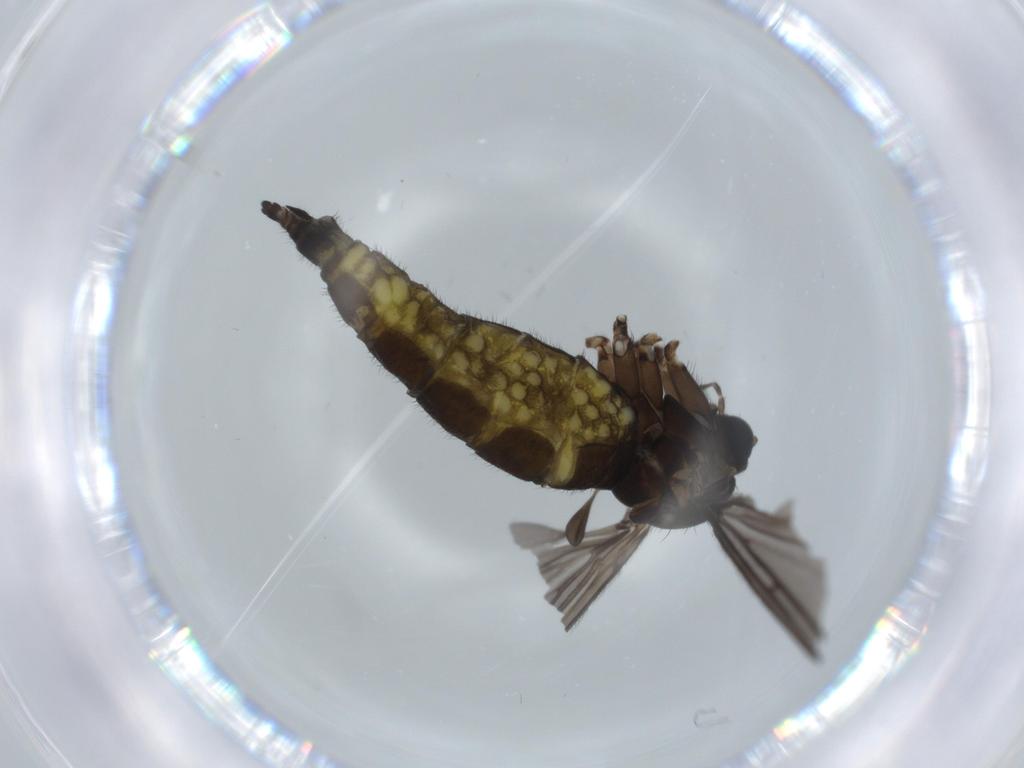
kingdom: Animalia
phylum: Arthropoda
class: Insecta
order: Diptera
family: Sciaridae
